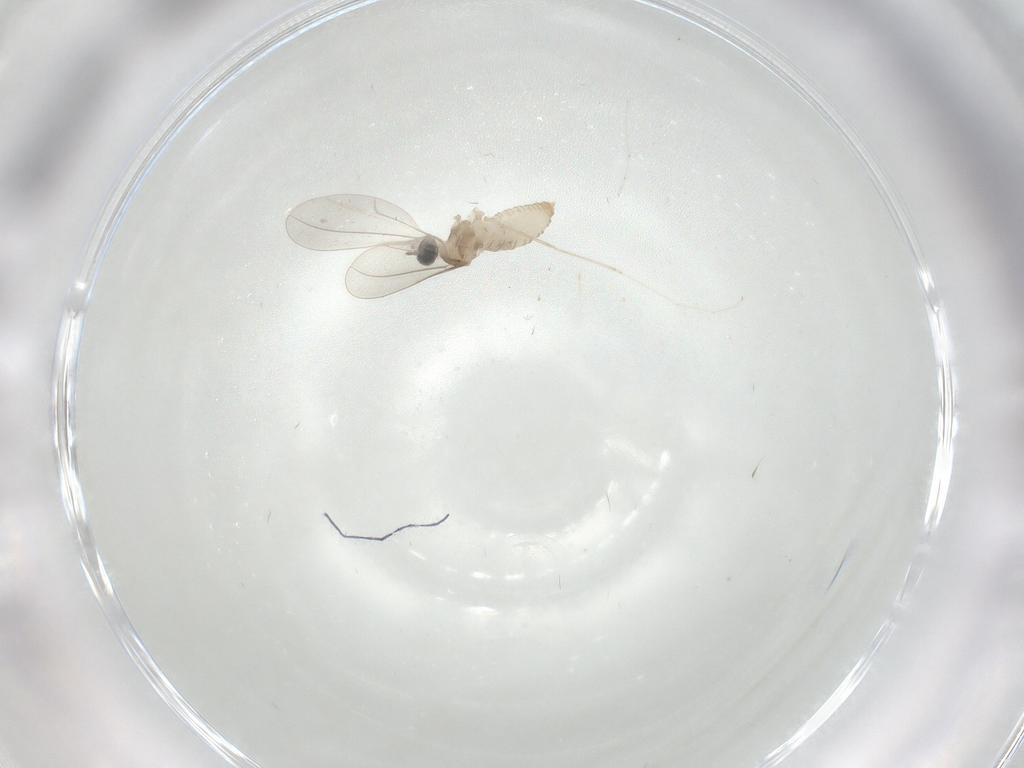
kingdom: Animalia
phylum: Arthropoda
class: Insecta
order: Diptera
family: Cecidomyiidae
